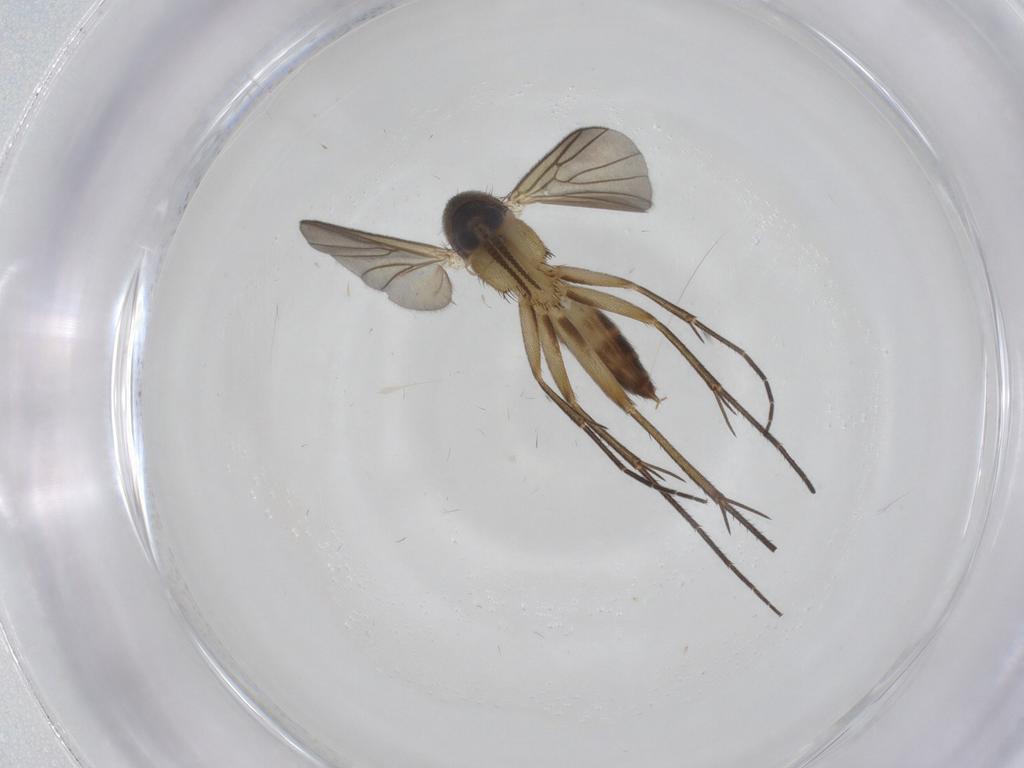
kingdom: Animalia
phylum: Arthropoda
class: Insecta
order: Diptera
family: Mycetophilidae
